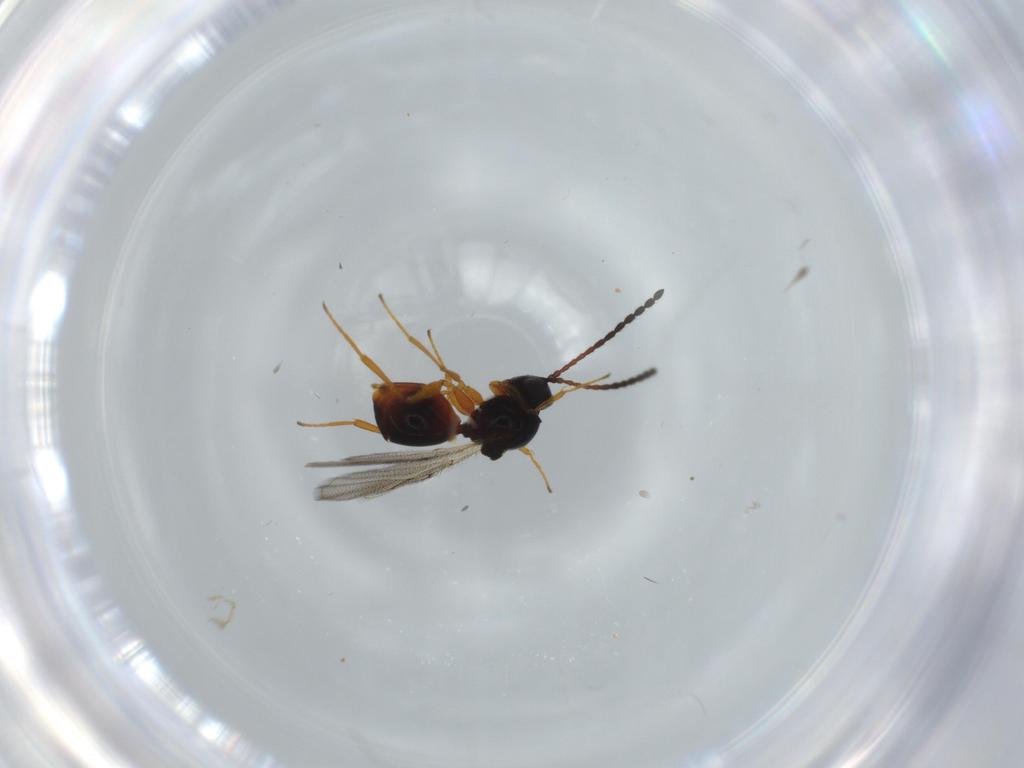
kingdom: Animalia
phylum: Arthropoda
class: Insecta
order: Hymenoptera
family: Figitidae
